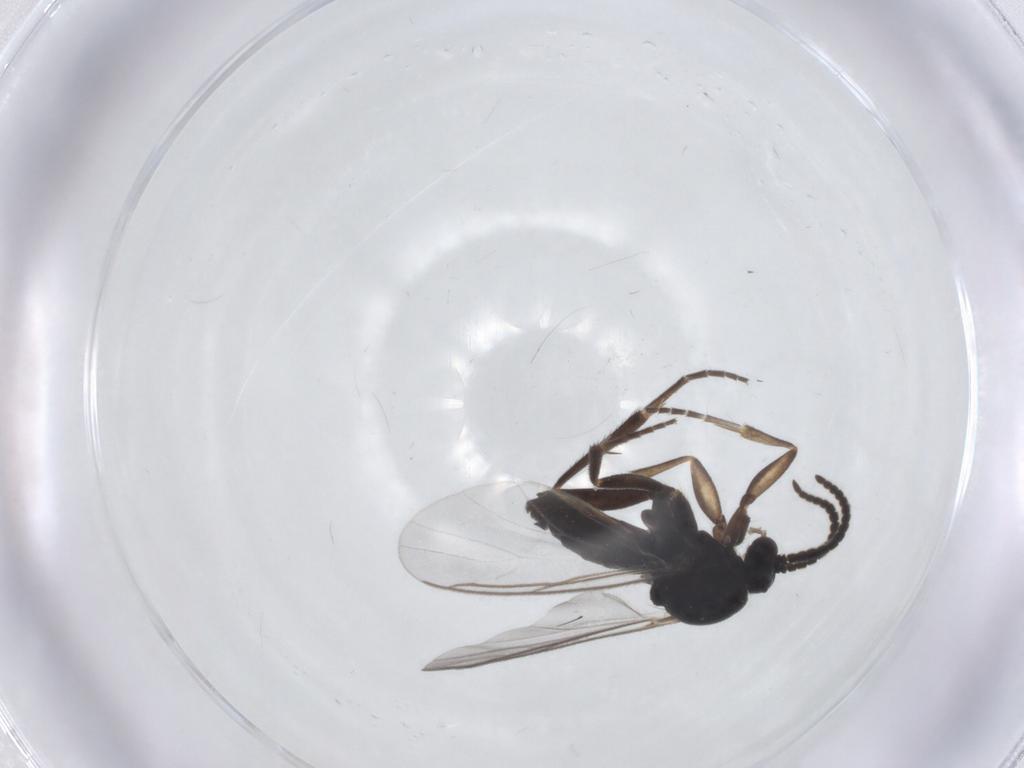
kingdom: Animalia
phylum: Arthropoda
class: Insecta
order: Diptera
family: Mycetophilidae
